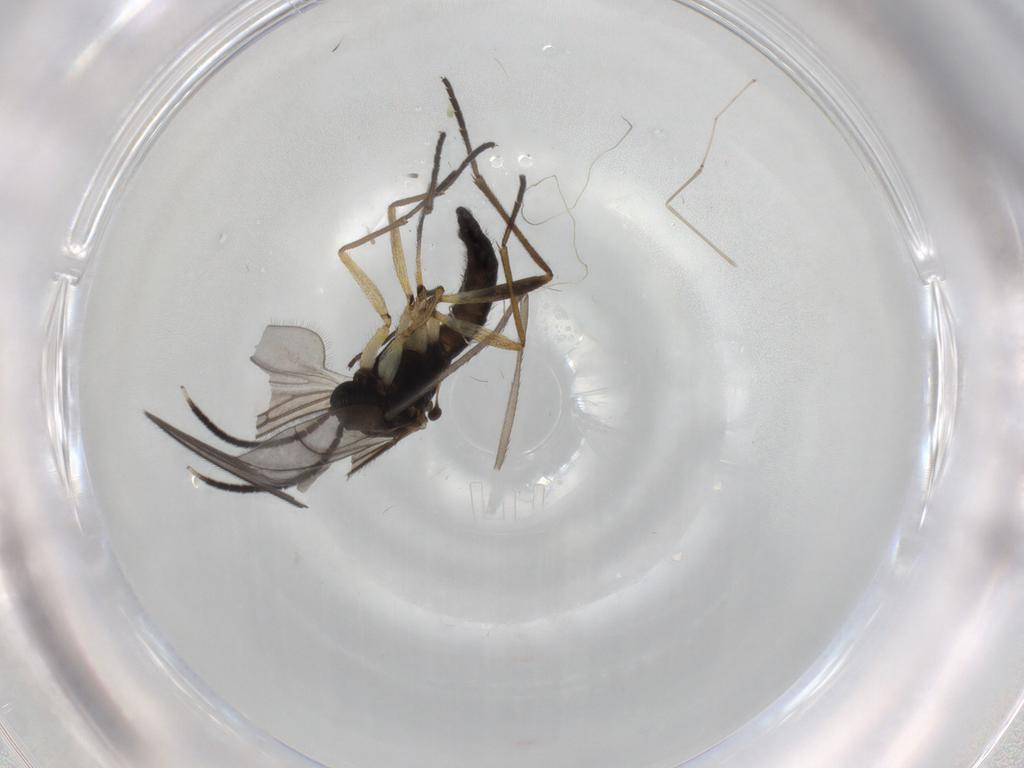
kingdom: Animalia
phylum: Arthropoda
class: Insecta
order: Diptera
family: Sciaridae
